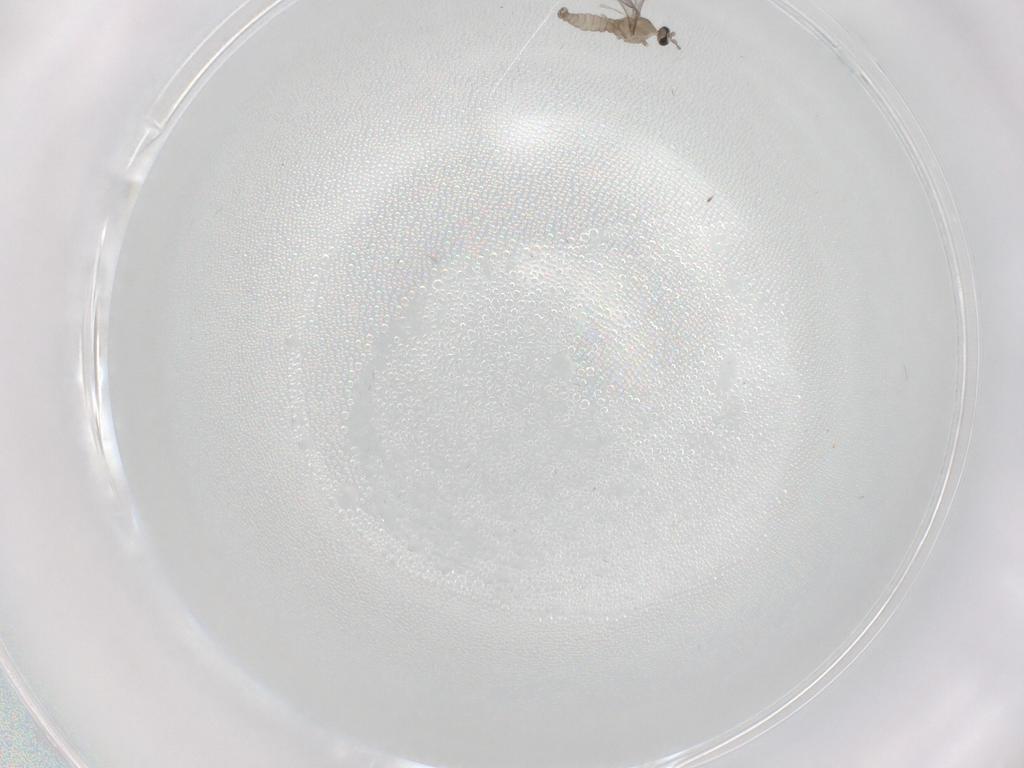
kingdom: Animalia
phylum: Arthropoda
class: Insecta
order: Diptera
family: Cecidomyiidae
